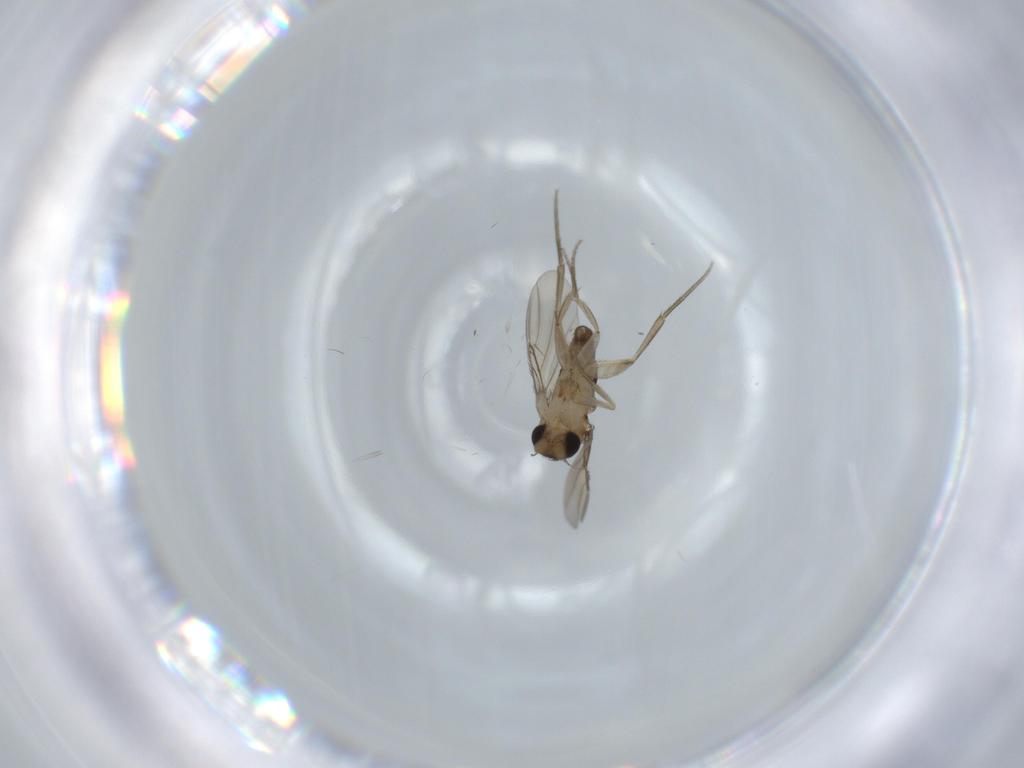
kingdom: Animalia
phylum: Arthropoda
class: Insecta
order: Diptera
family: Phoridae
